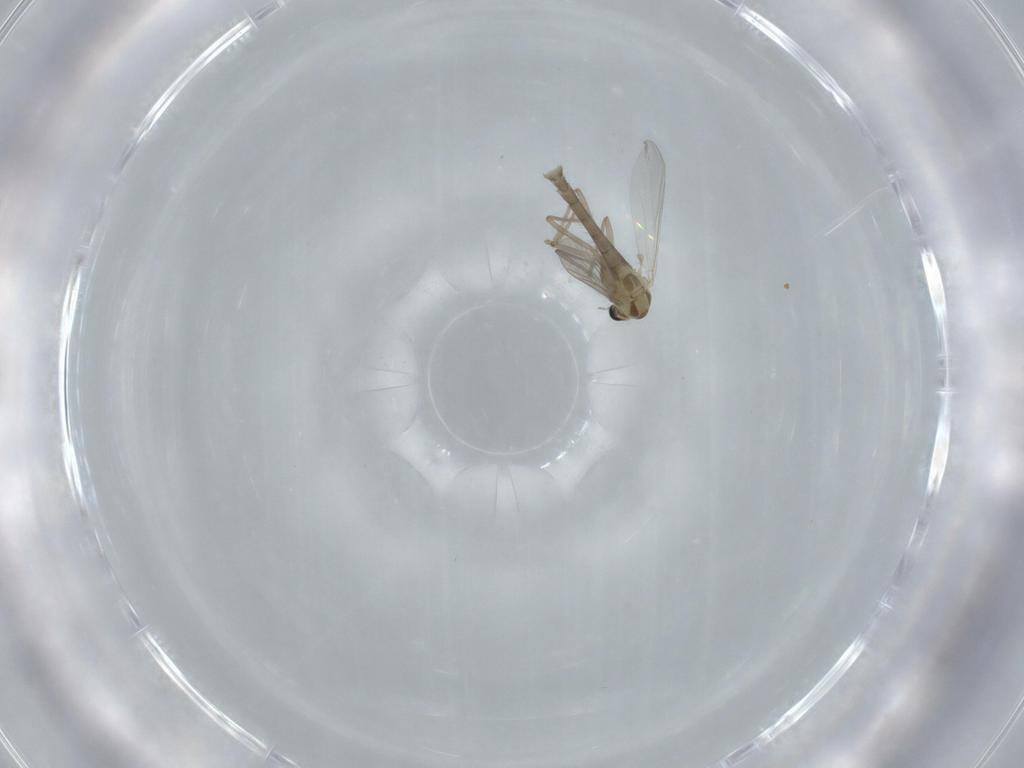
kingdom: Animalia
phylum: Arthropoda
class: Insecta
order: Diptera
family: Chironomidae
